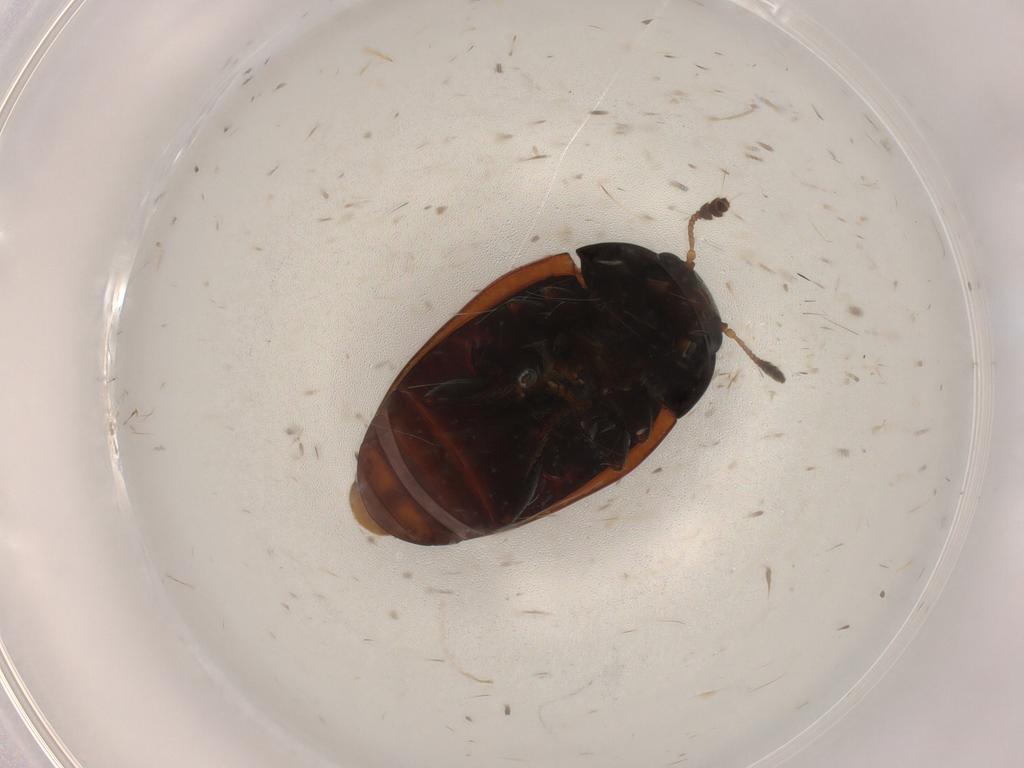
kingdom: Animalia
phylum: Arthropoda
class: Insecta
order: Coleoptera
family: Erotylidae
